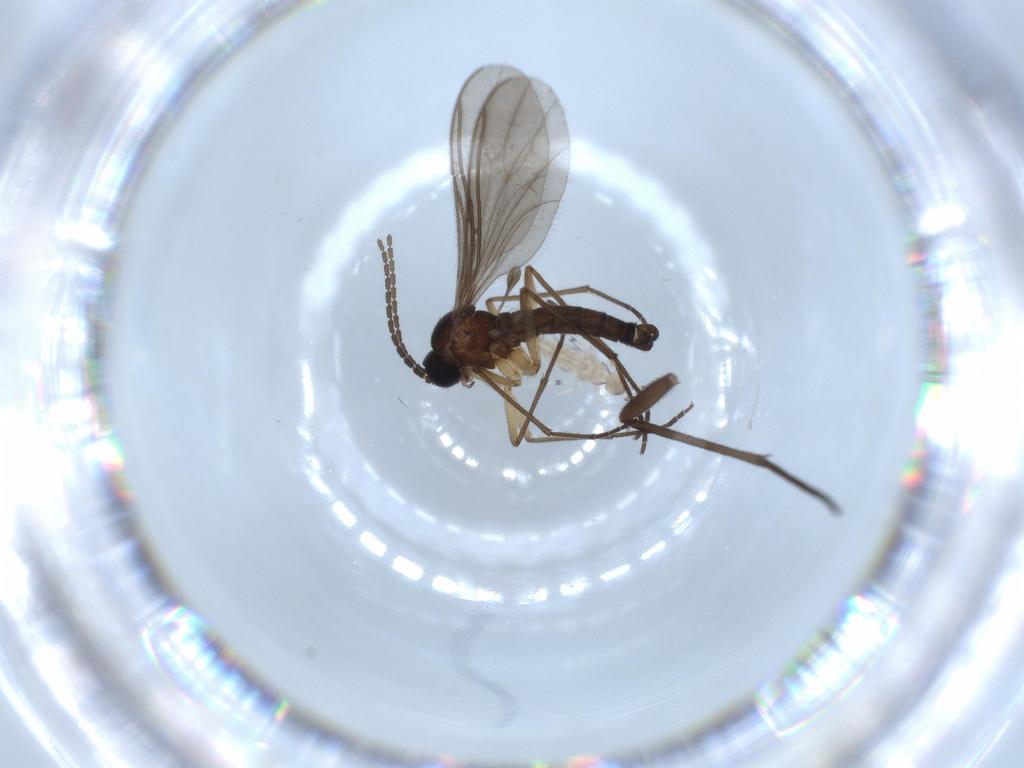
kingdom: Animalia
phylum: Arthropoda
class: Collembola
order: Entomobryomorpha
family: Entomobryidae
